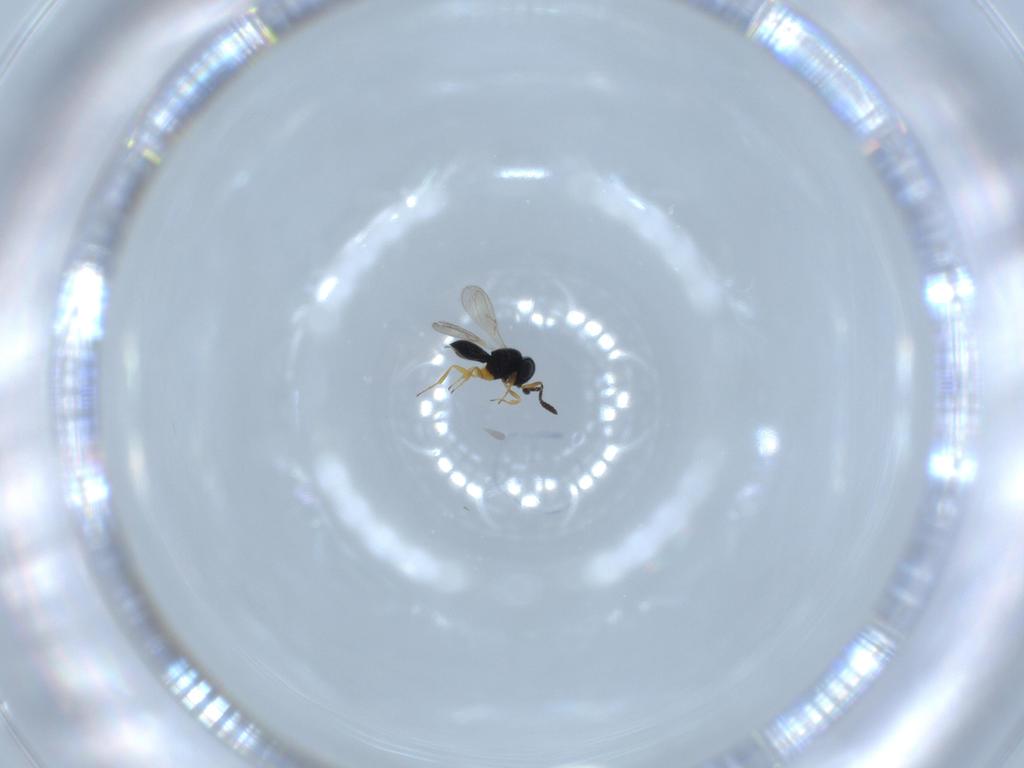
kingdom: Animalia
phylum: Arthropoda
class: Insecta
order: Hymenoptera
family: Scelionidae
